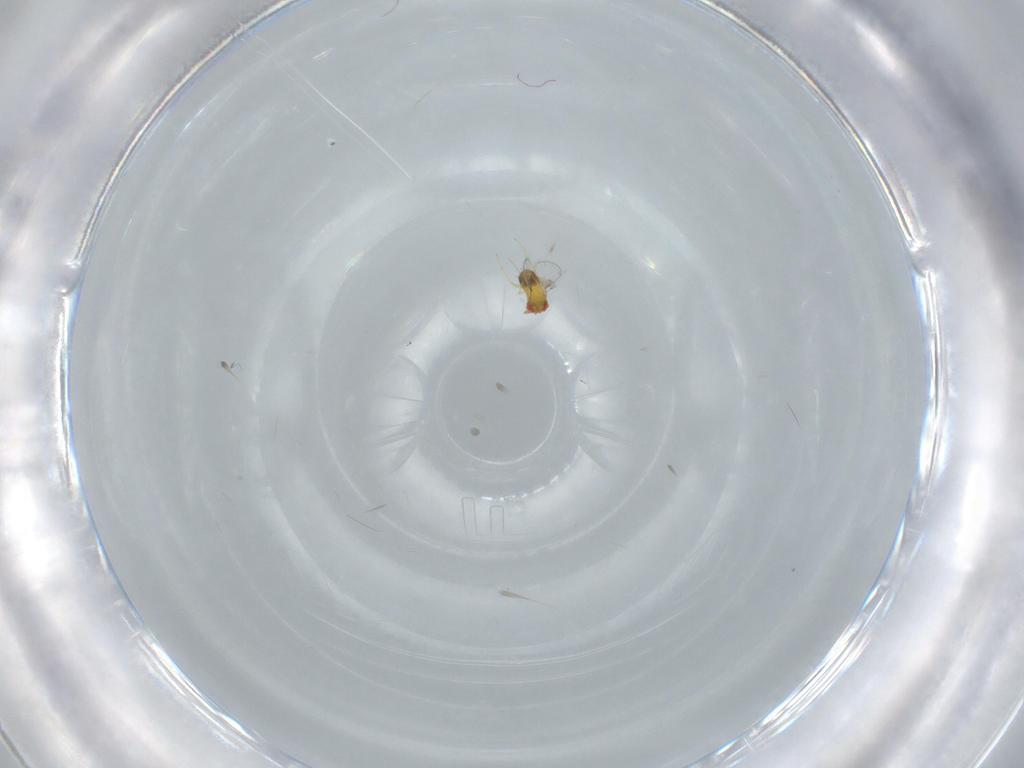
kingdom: Animalia
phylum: Arthropoda
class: Insecta
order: Hymenoptera
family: Trichogrammatidae
